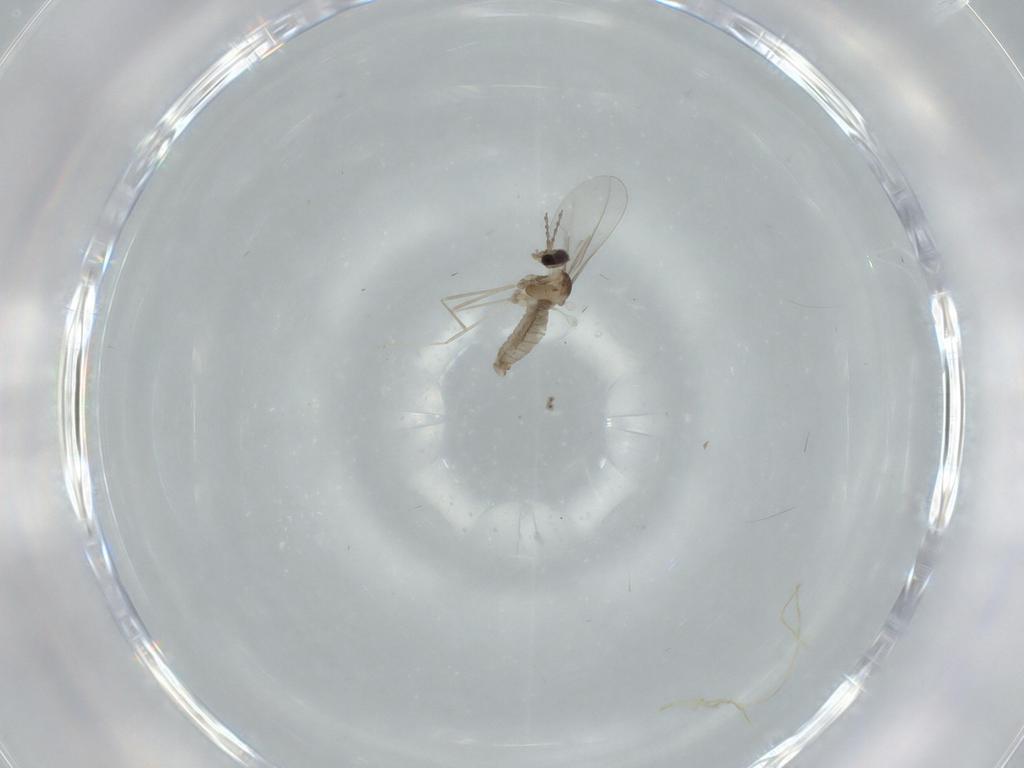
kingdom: Animalia
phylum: Arthropoda
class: Insecta
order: Diptera
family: Cecidomyiidae
